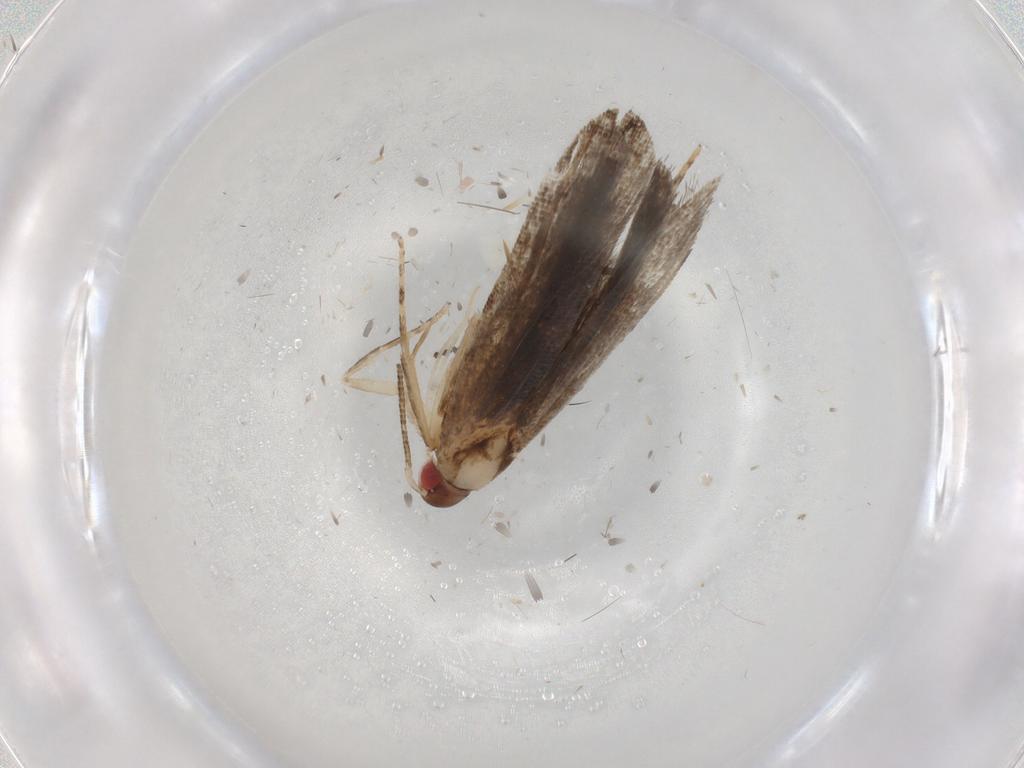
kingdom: Animalia
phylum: Arthropoda
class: Insecta
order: Lepidoptera
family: Gelechiidae
